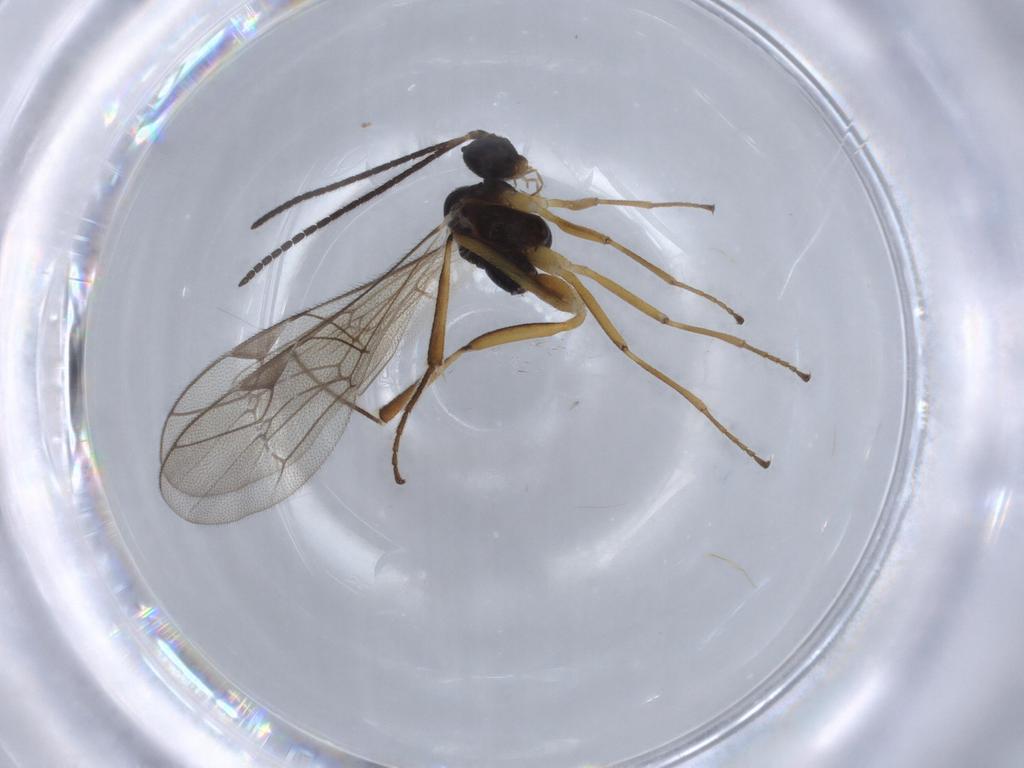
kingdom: Animalia
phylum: Arthropoda
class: Insecta
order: Hymenoptera
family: Ichneumonidae
